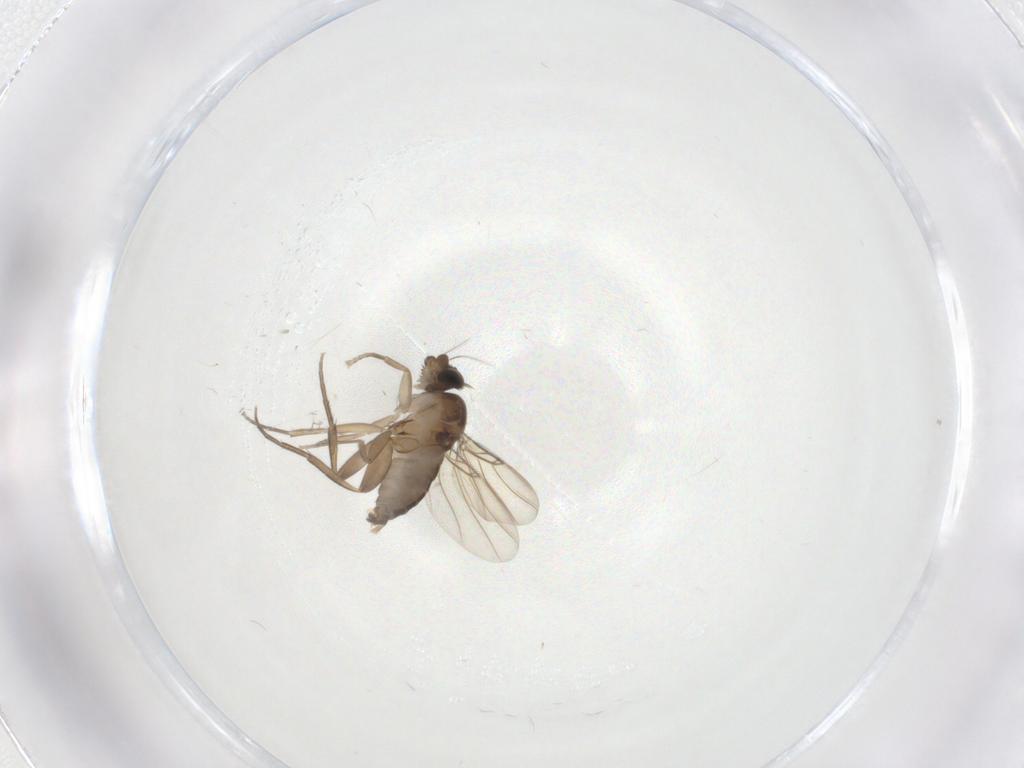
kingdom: Animalia
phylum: Arthropoda
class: Insecta
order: Diptera
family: Phoridae
